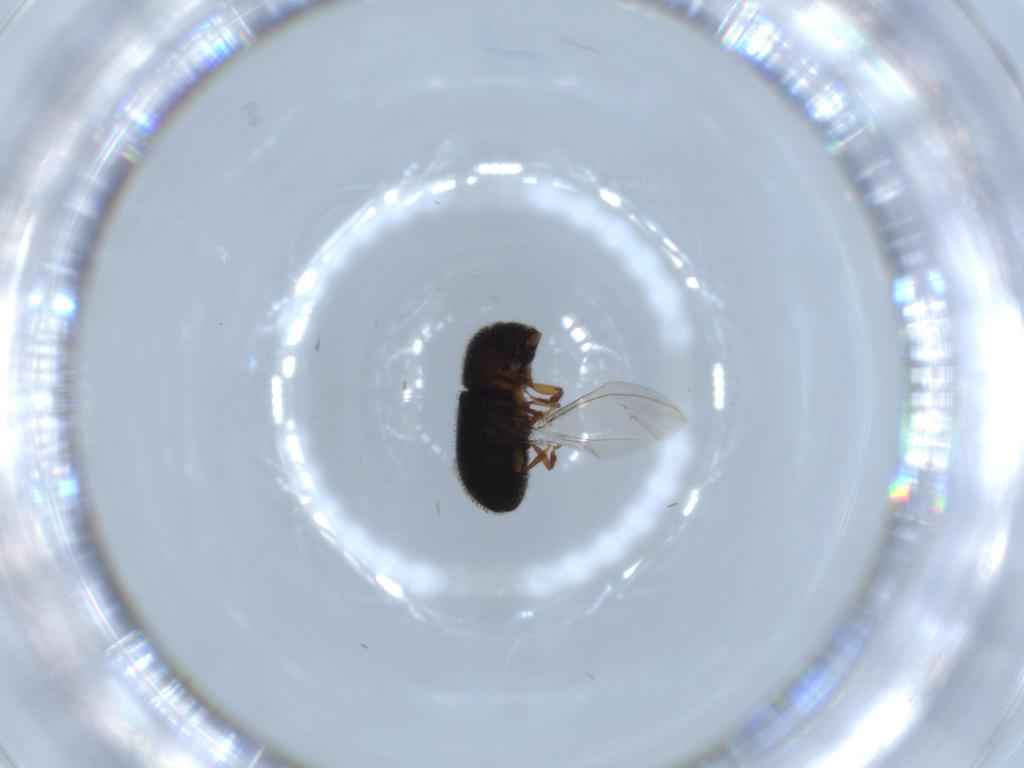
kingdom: Animalia
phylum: Arthropoda
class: Insecta
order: Coleoptera
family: Curculionidae
